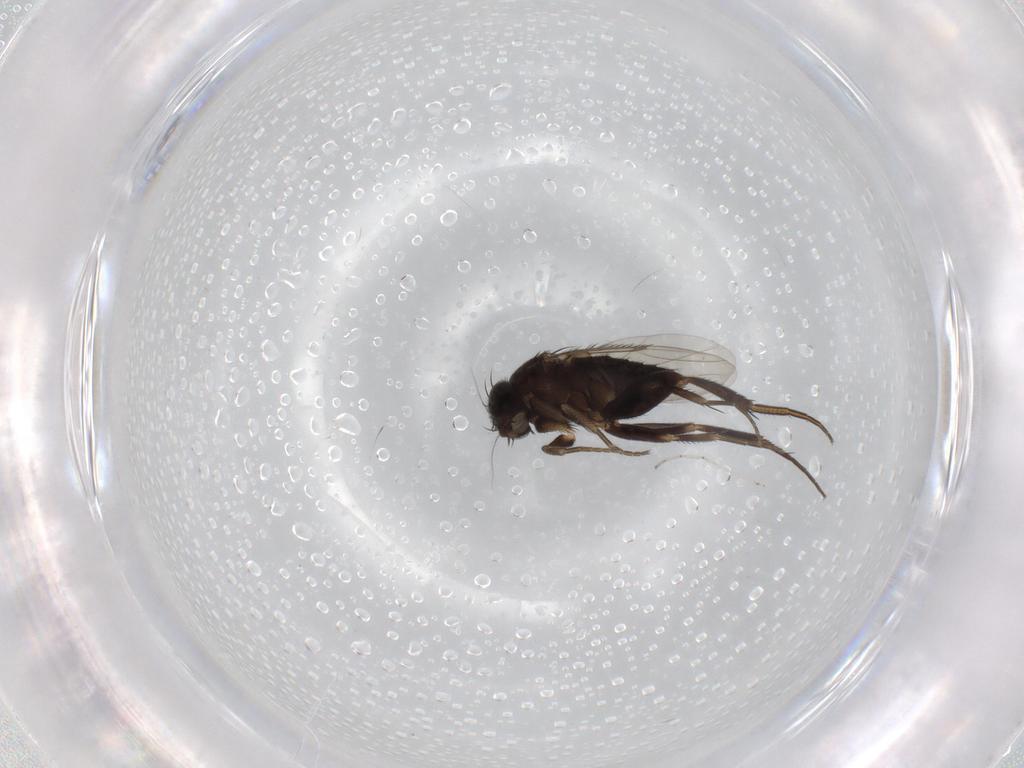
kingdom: Animalia
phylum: Arthropoda
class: Insecta
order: Diptera
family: Phoridae
